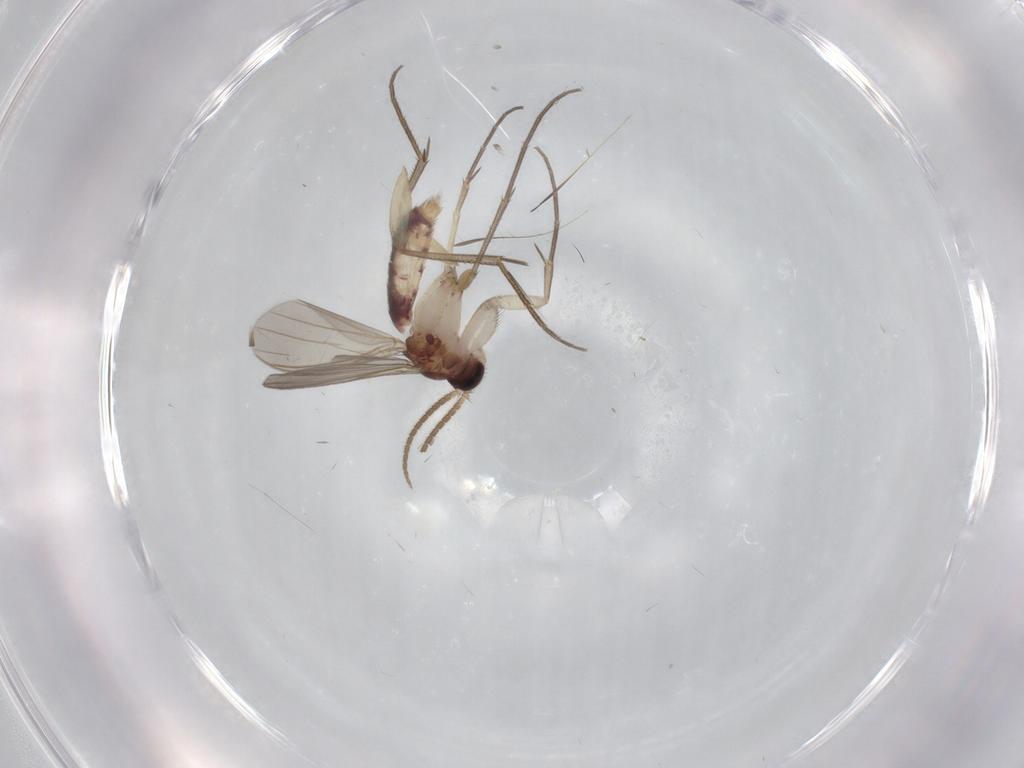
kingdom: Animalia
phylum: Arthropoda
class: Insecta
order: Diptera
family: Mycetophilidae
